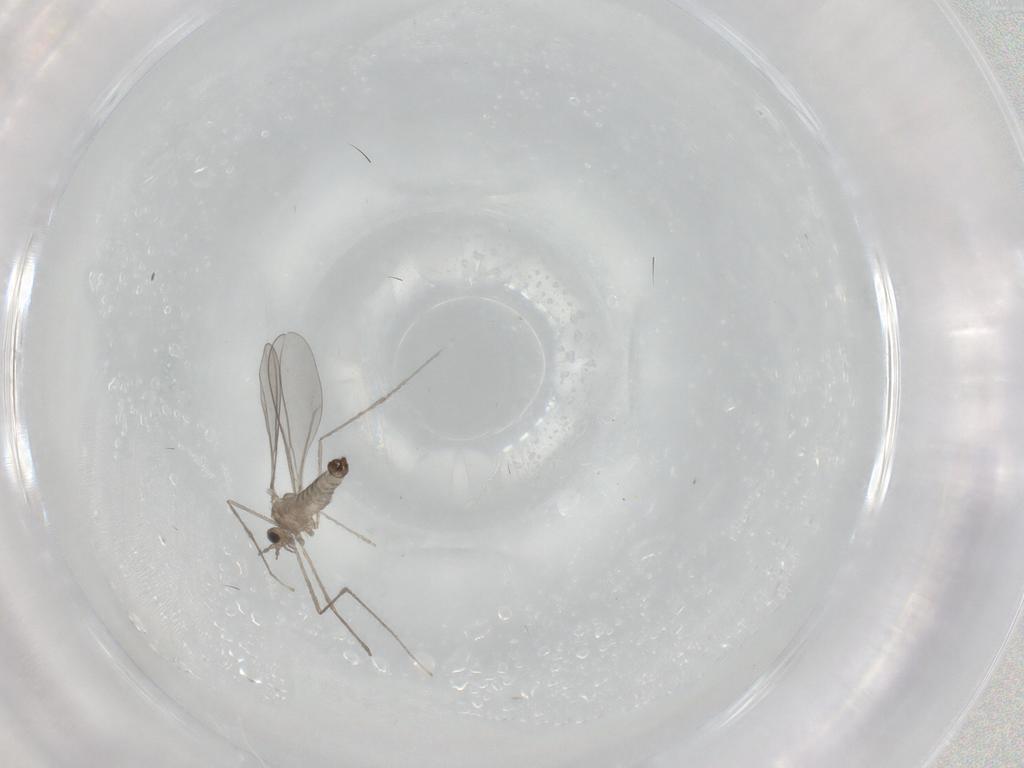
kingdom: Animalia
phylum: Arthropoda
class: Insecta
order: Diptera
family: Cecidomyiidae
